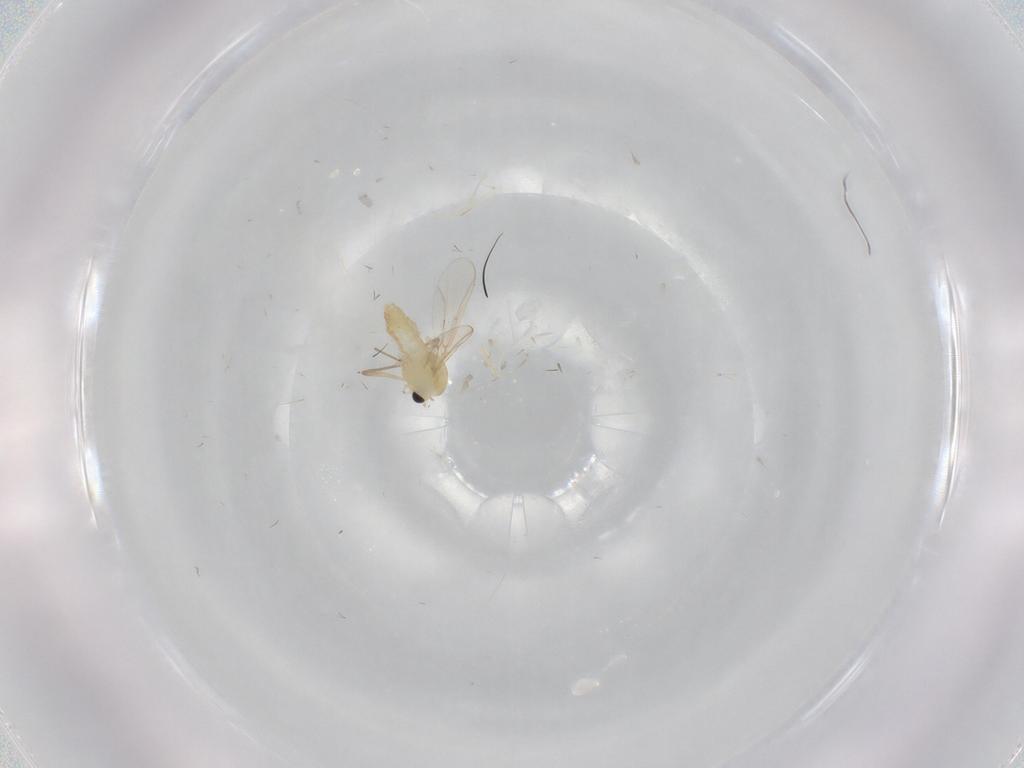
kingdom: Animalia
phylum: Arthropoda
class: Insecta
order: Diptera
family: Chironomidae
